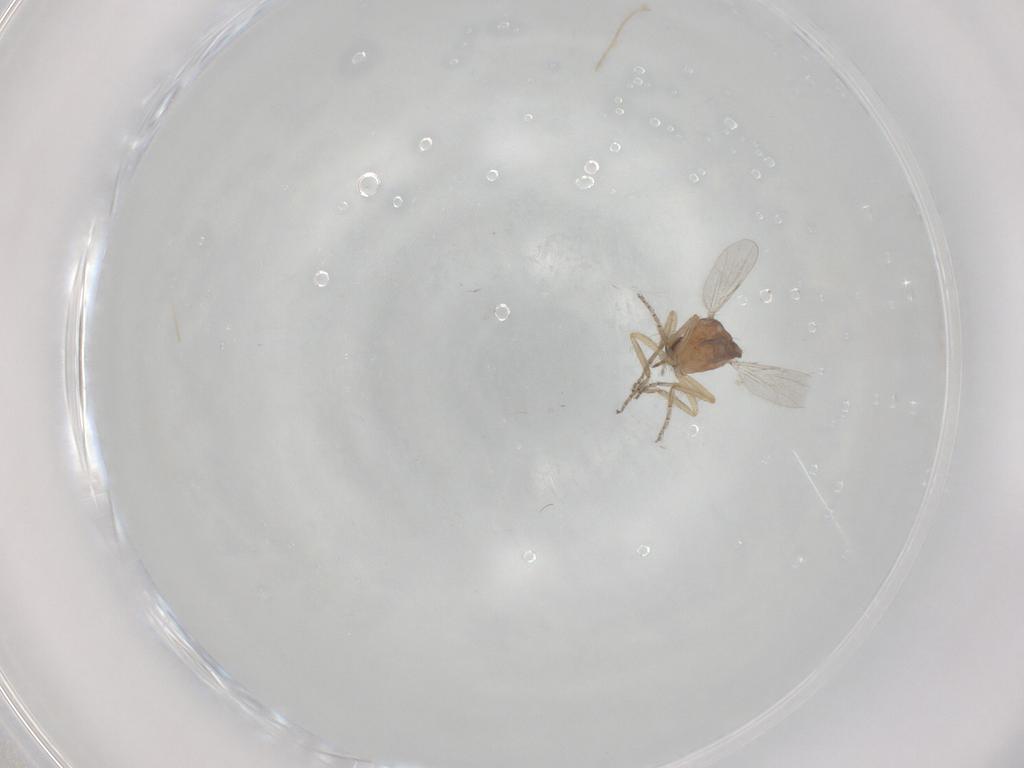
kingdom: Animalia
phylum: Arthropoda
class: Insecta
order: Diptera
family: Ceratopogonidae
